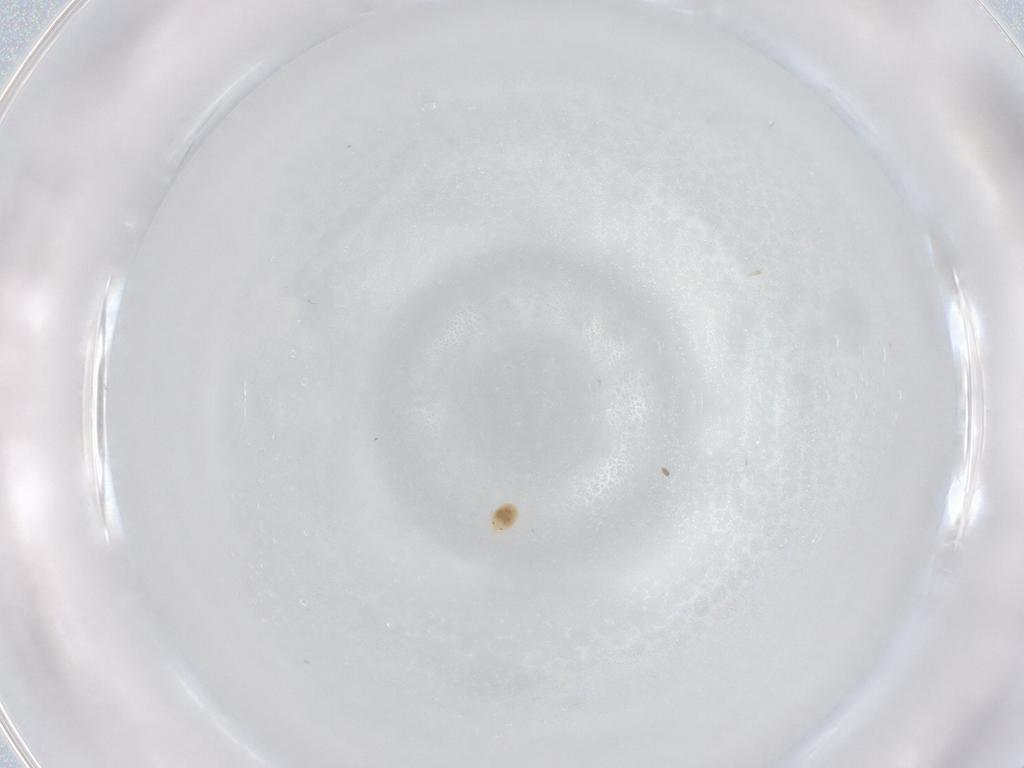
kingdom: Animalia
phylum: Arthropoda
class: Arachnida
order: Trombidiformes
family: Torrenticolidae
